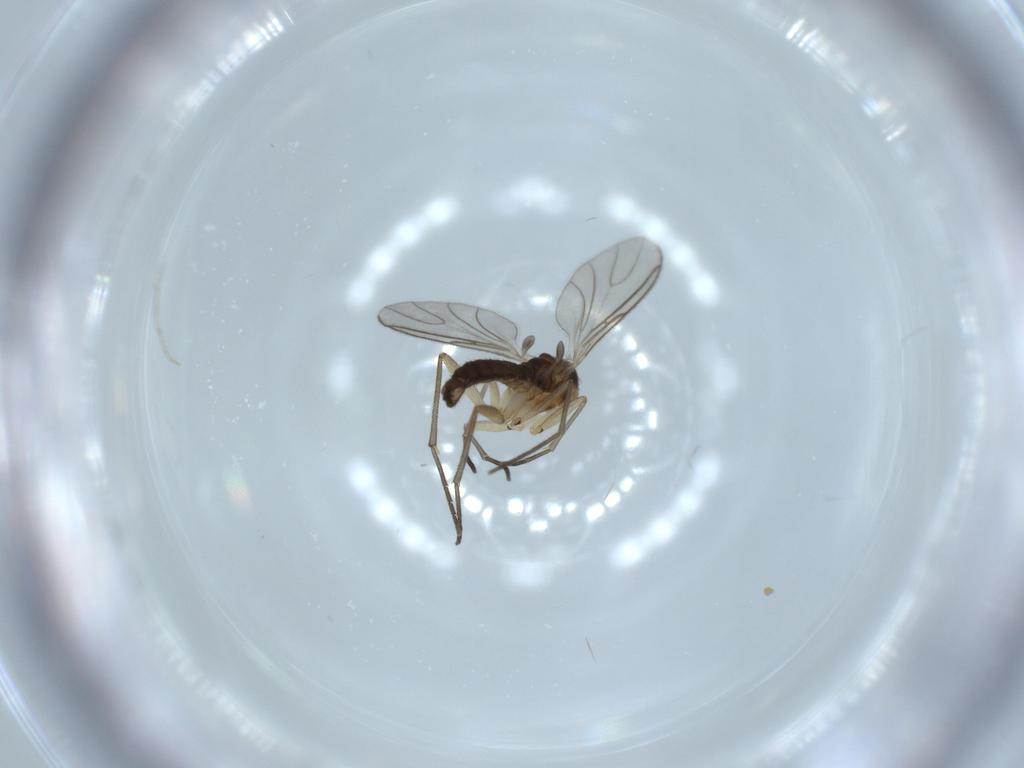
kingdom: Animalia
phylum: Arthropoda
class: Insecta
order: Diptera
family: Sciaridae
